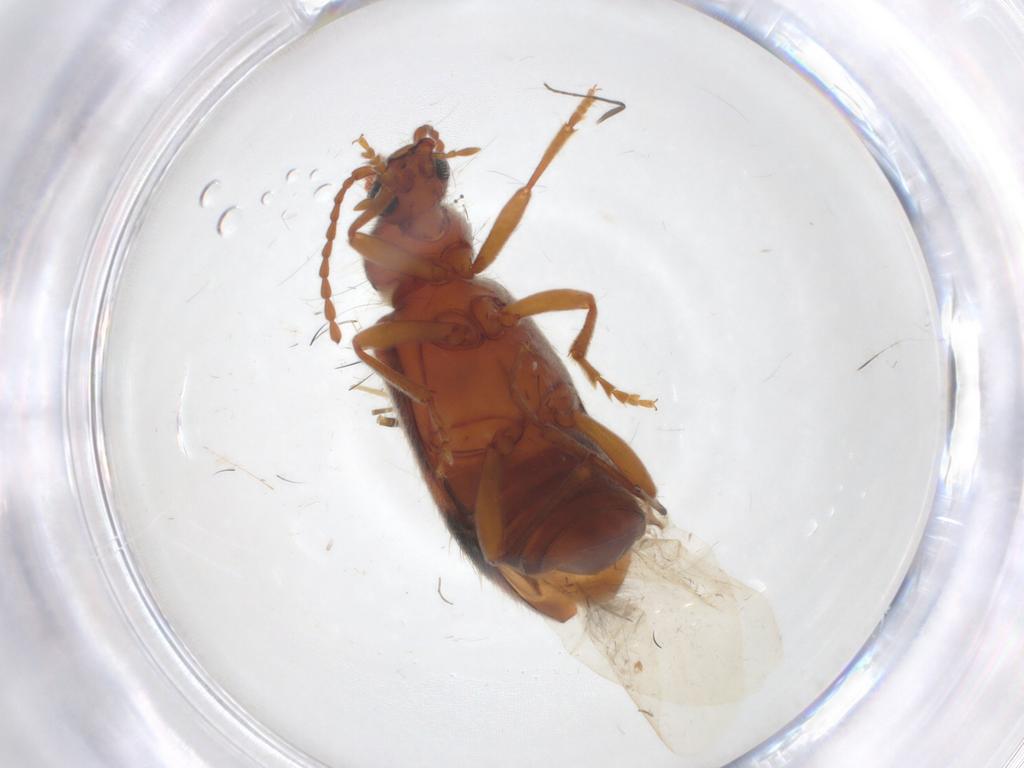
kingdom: Animalia
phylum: Arthropoda
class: Insecta
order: Coleoptera
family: Anthicidae
